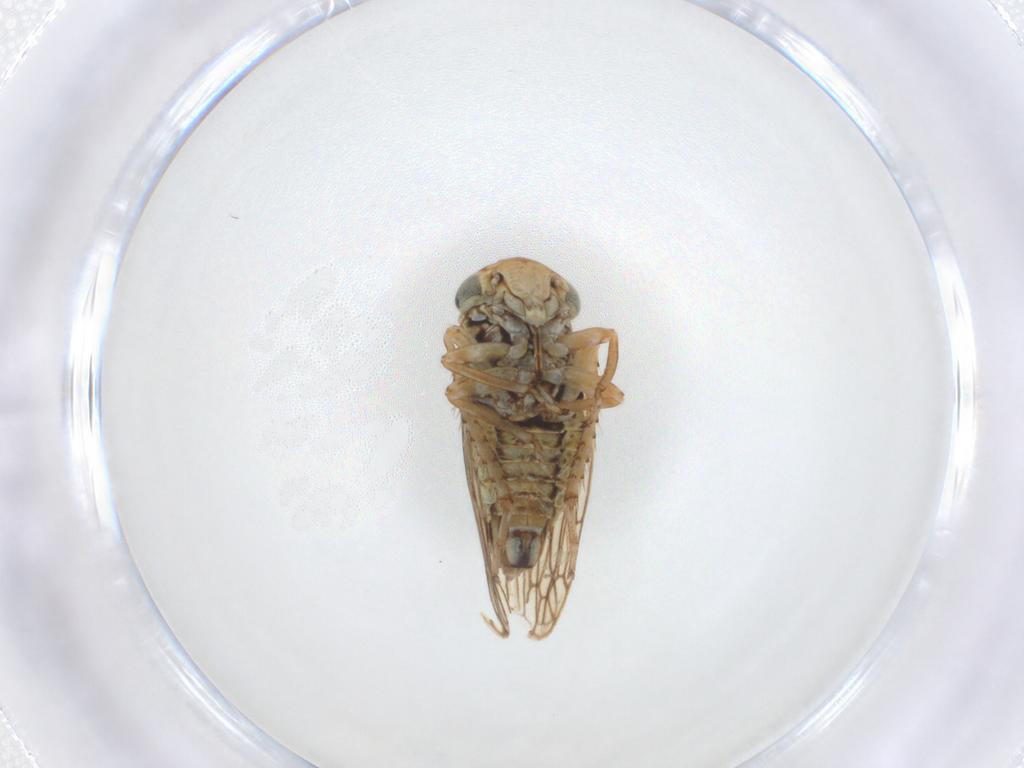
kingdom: Animalia
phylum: Arthropoda
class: Insecta
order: Hemiptera
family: Cicadellidae
